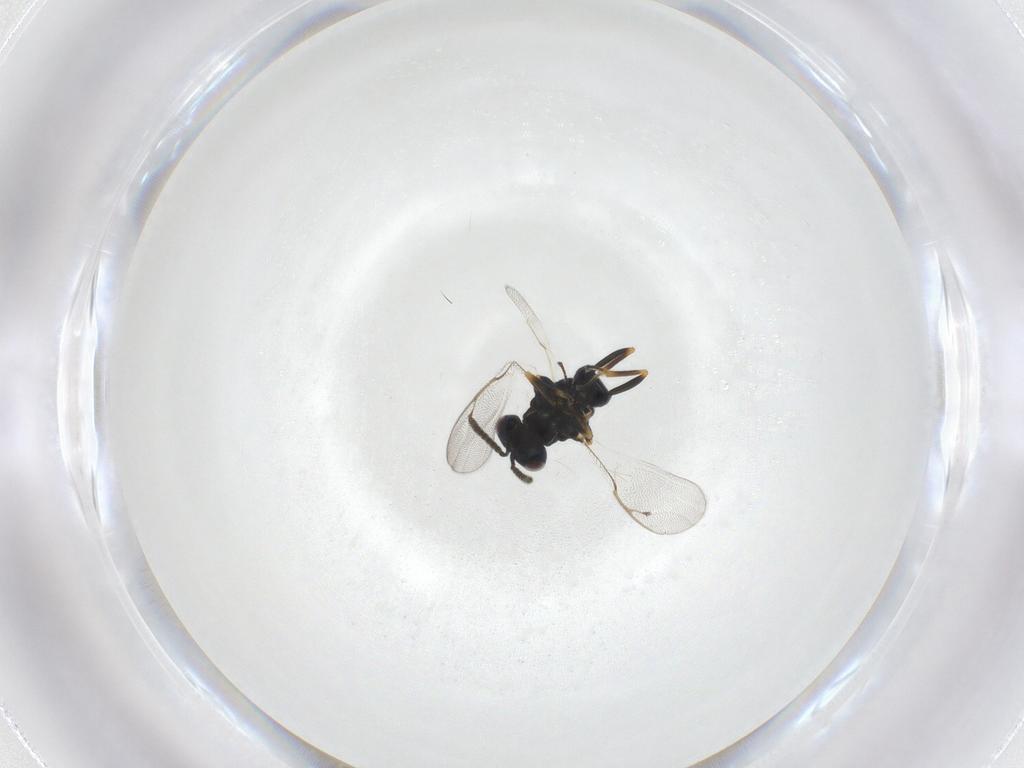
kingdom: Animalia
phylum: Arthropoda
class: Insecta
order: Hymenoptera
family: Pteromalidae
